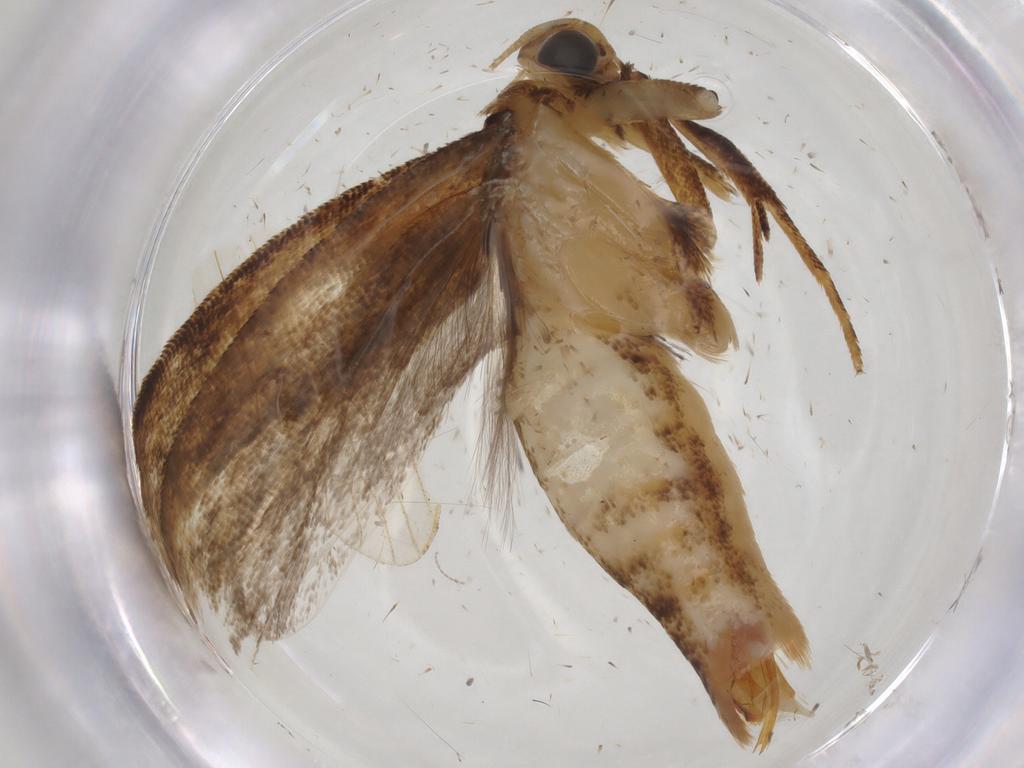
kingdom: Animalia
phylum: Arthropoda
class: Insecta
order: Lepidoptera
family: Gelechiidae
